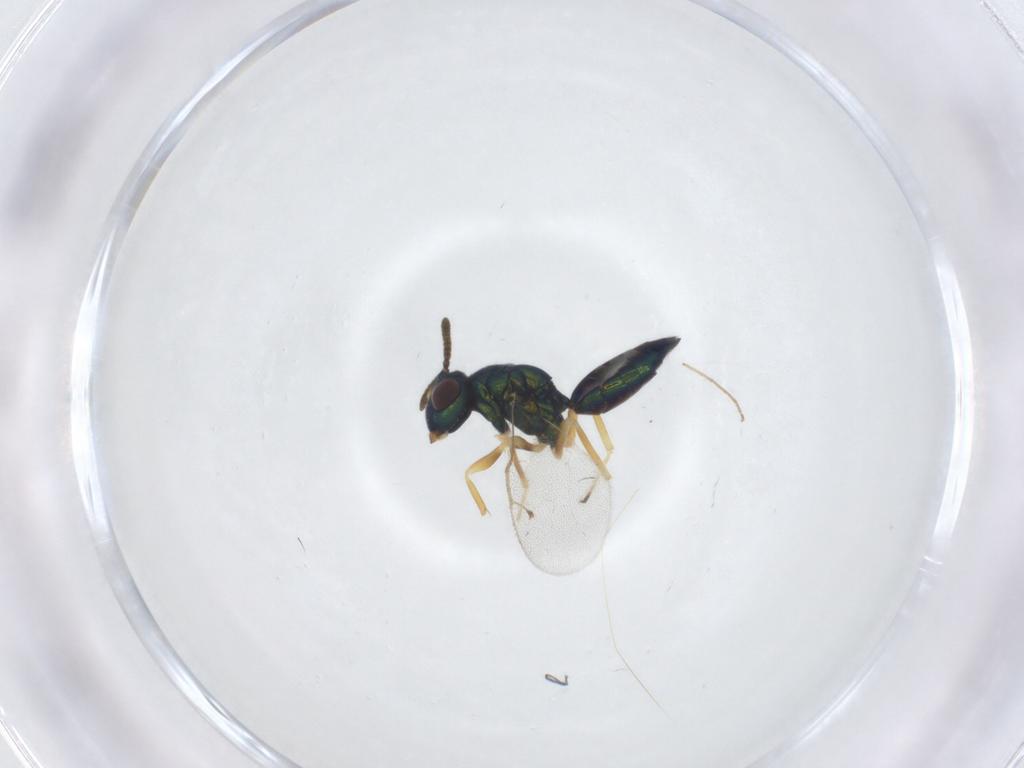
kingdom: Animalia
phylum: Arthropoda
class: Insecta
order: Hymenoptera
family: Pteromalidae
